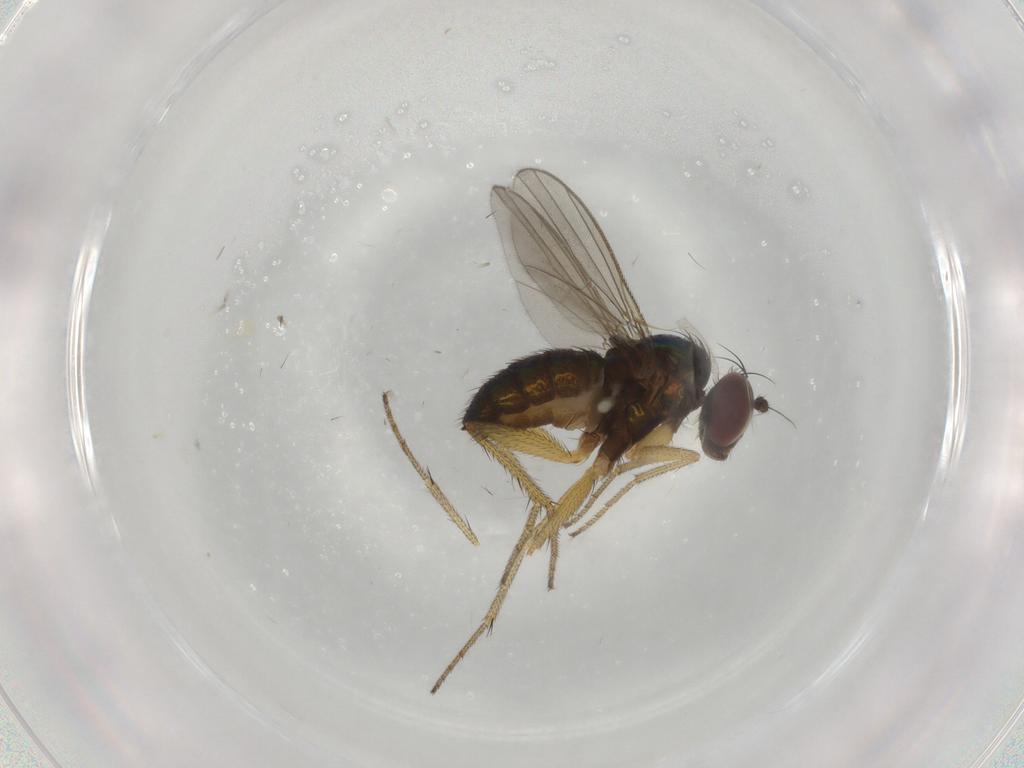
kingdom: Animalia
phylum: Arthropoda
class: Insecta
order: Diptera
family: Dolichopodidae
